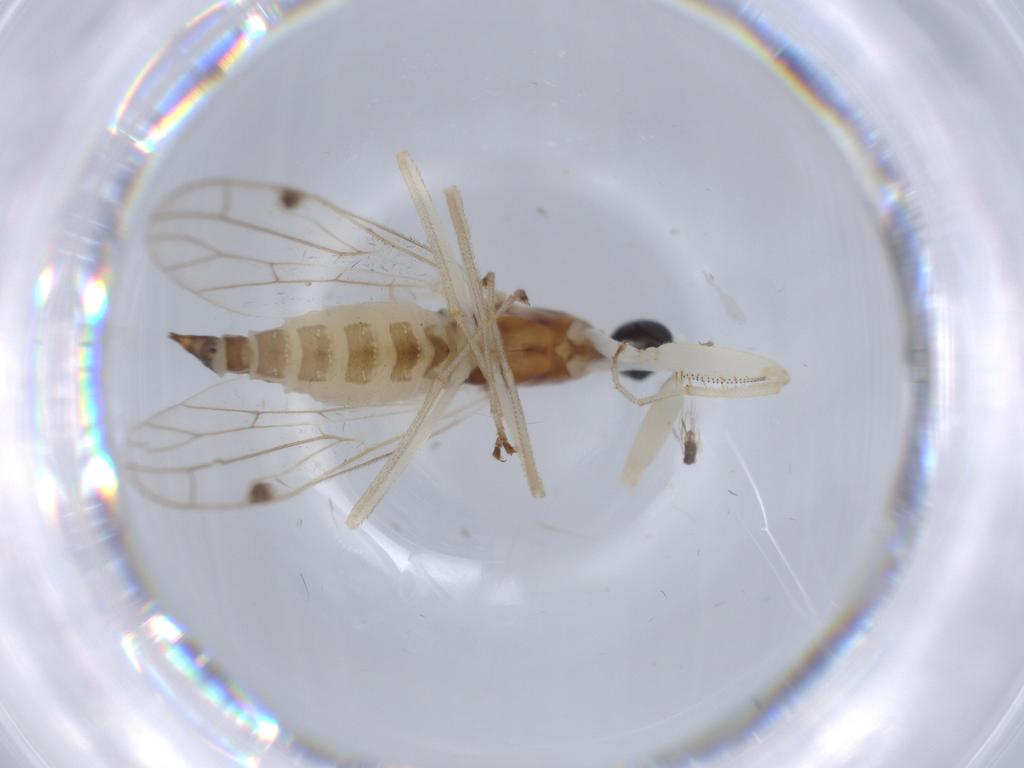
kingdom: Animalia
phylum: Arthropoda
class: Insecta
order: Diptera
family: Empididae
